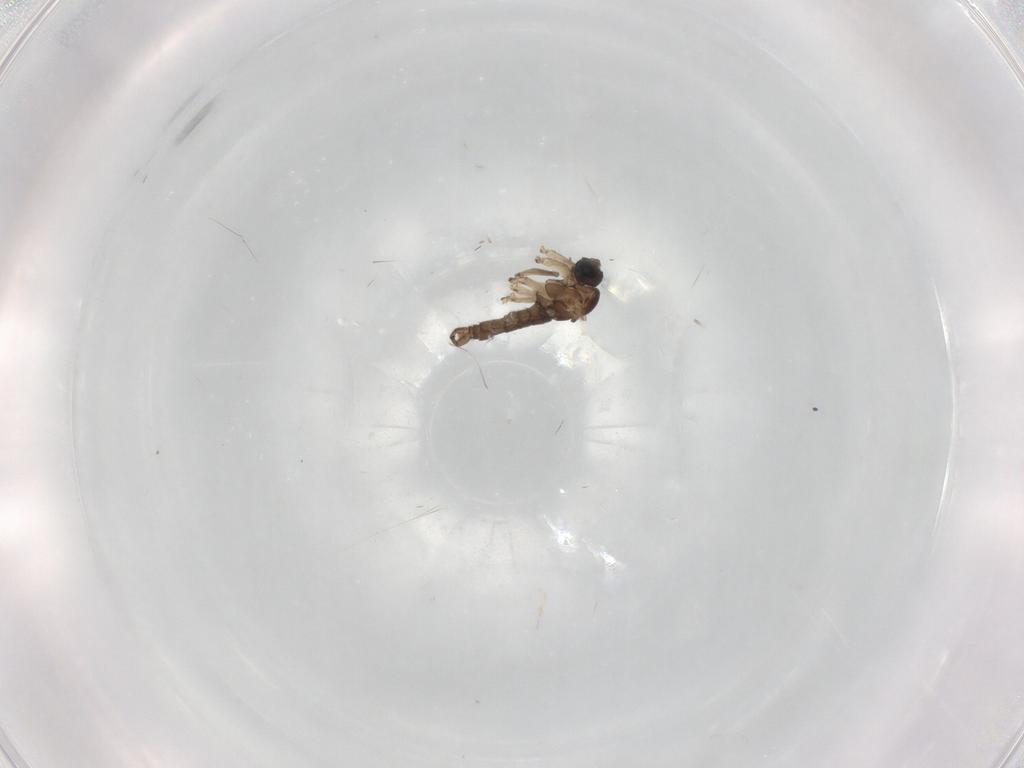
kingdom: Animalia
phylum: Arthropoda
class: Insecta
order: Diptera
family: Sciaridae
